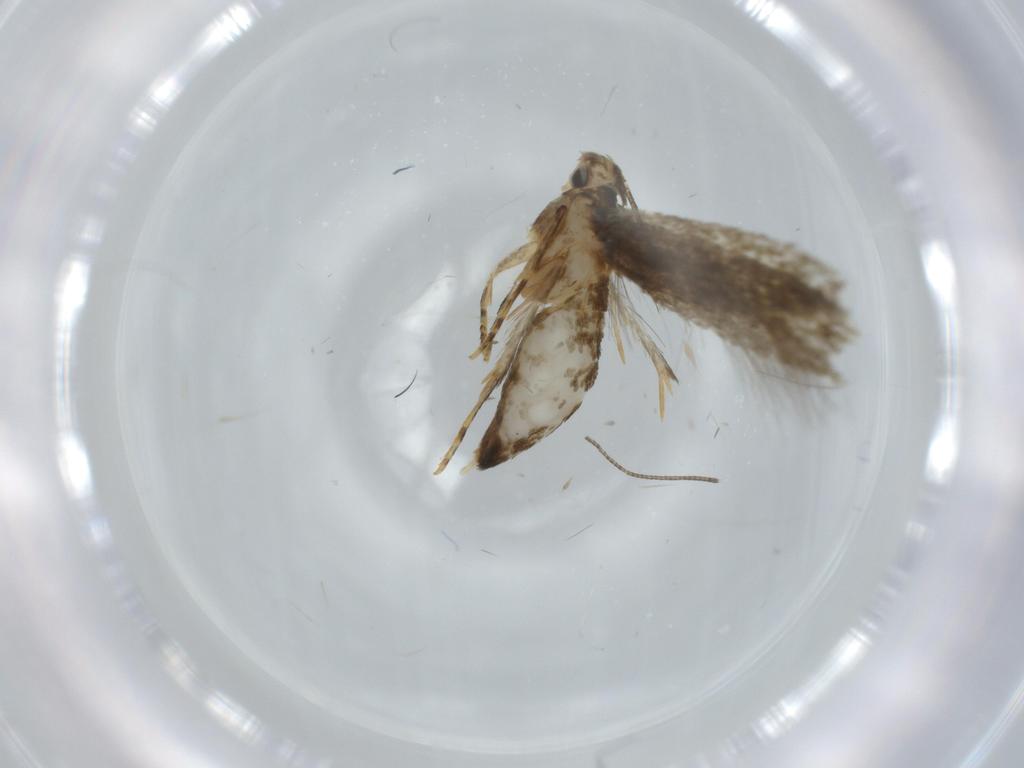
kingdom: Animalia
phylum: Arthropoda
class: Insecta
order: Lepidoptera
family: Tineidae
